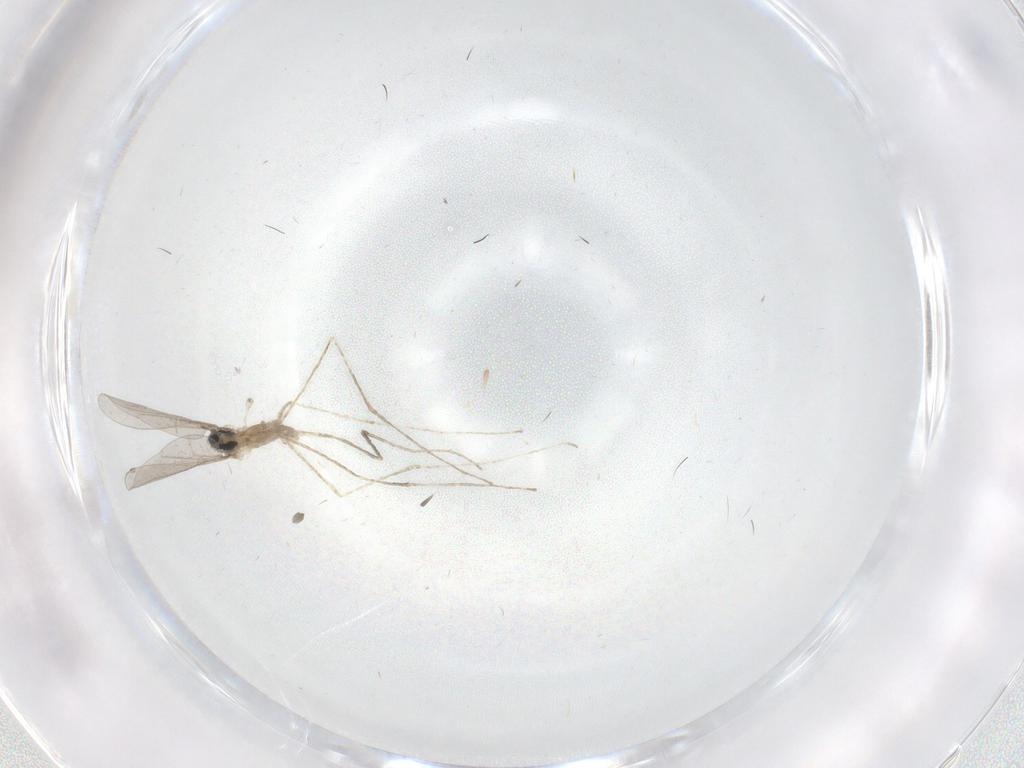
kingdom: Animalia
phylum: Arthropoda
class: Insecta
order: Diptera
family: Cecidomyiidae
